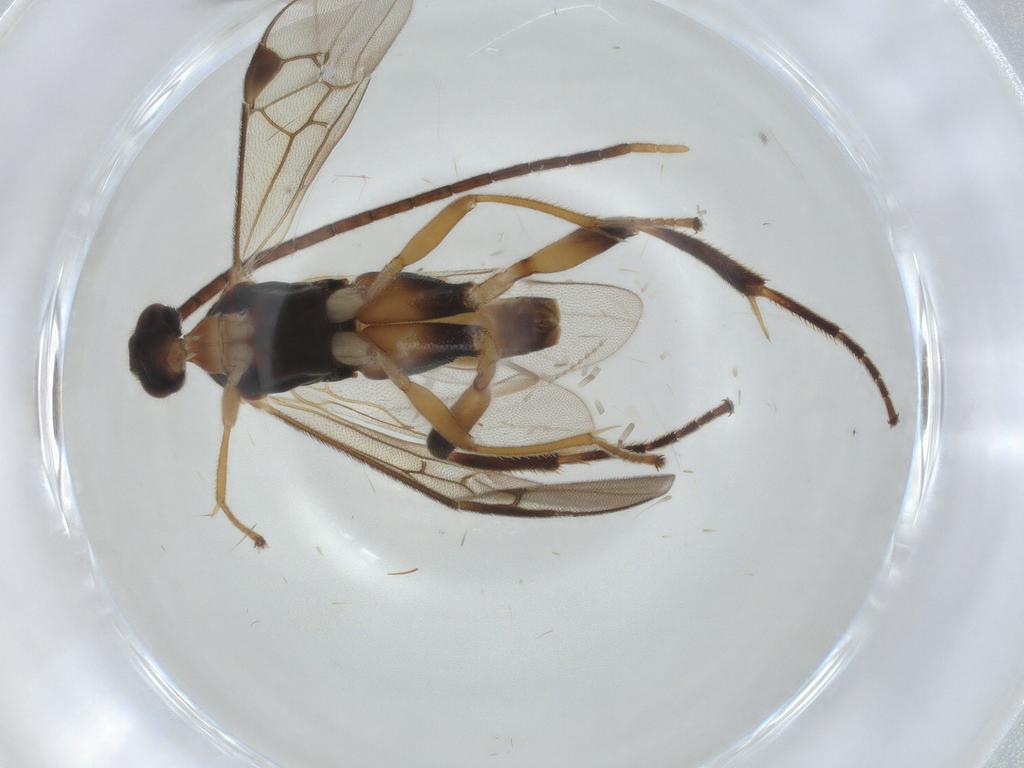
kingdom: Animalia
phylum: Arthropoda
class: Insecta
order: Hymenoptera
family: Braconidae
